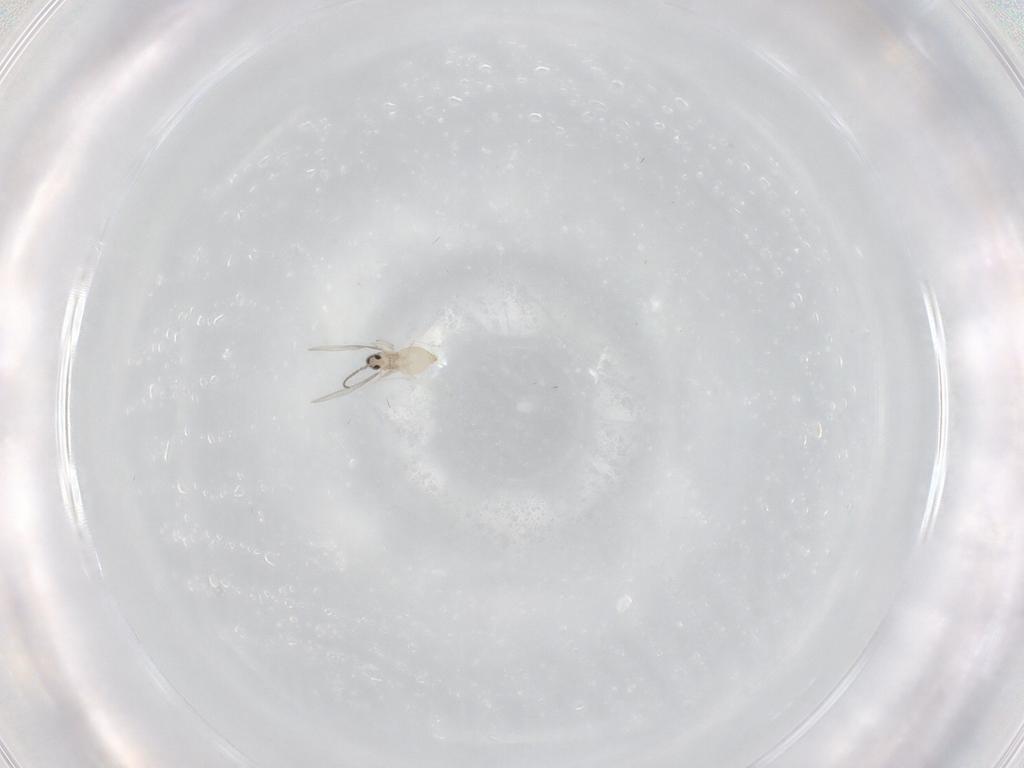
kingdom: Animalia
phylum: Arthropoda
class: Insecta
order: Diptera
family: Cecidomyiidae
